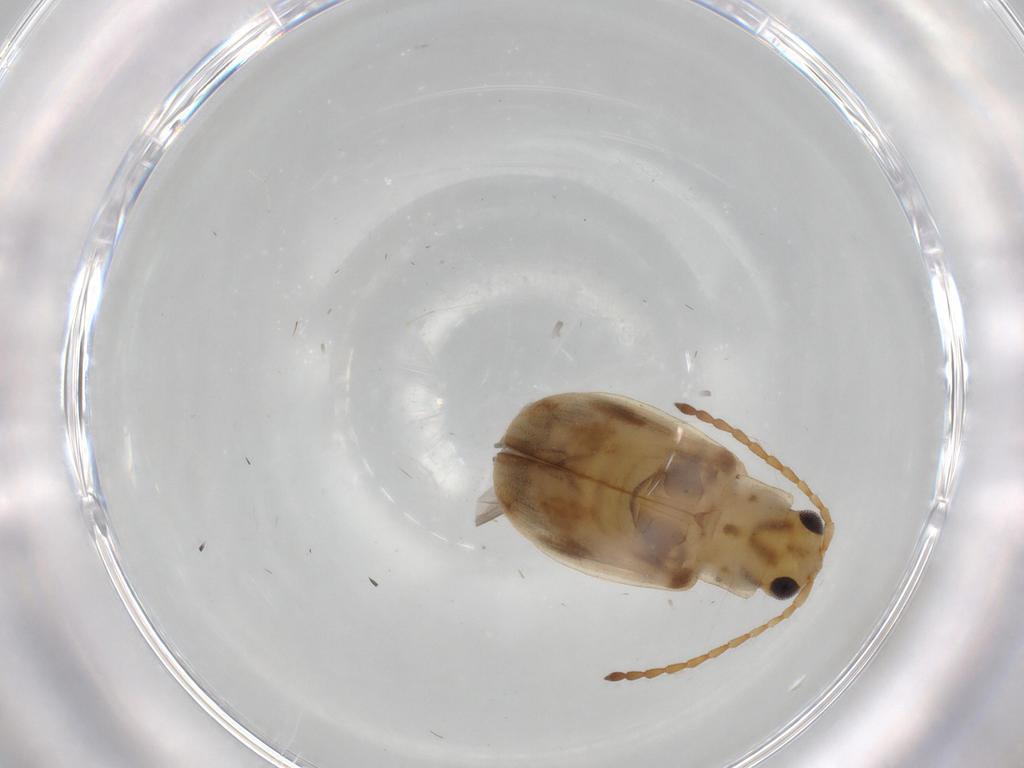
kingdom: Animalia
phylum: Arthropoda
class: Insecta
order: Coleoptera
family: Chrysomelidae
